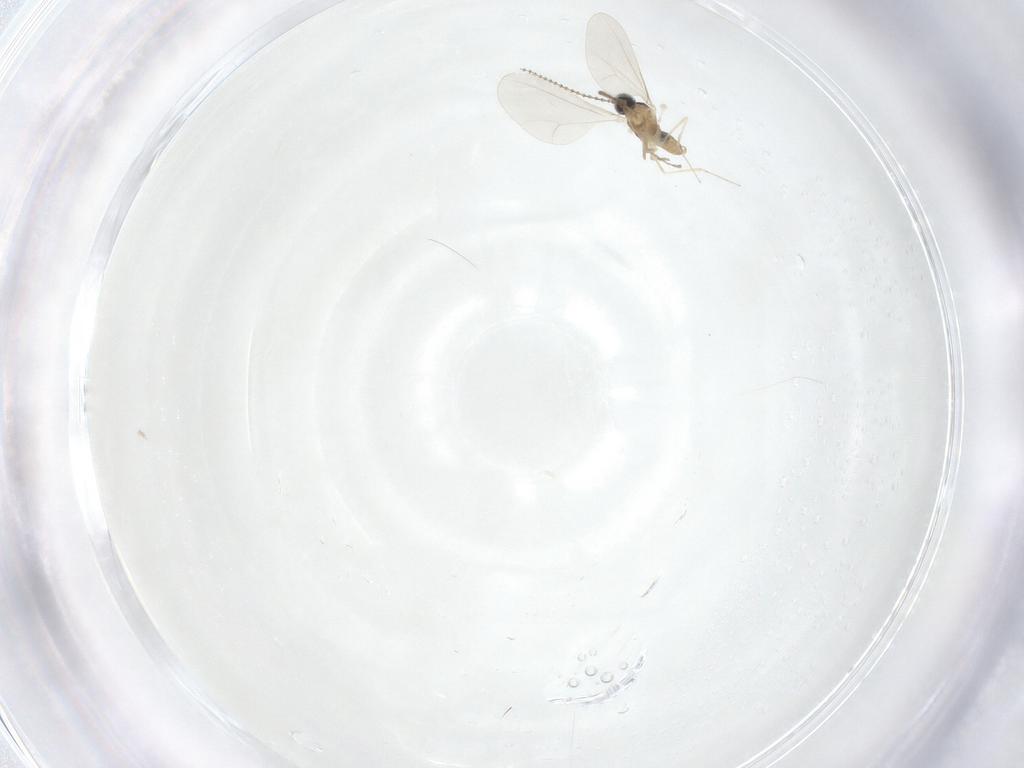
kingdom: Animalia
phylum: Arthropoda
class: Insecta
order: Diptera
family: Cecidomyiidae
